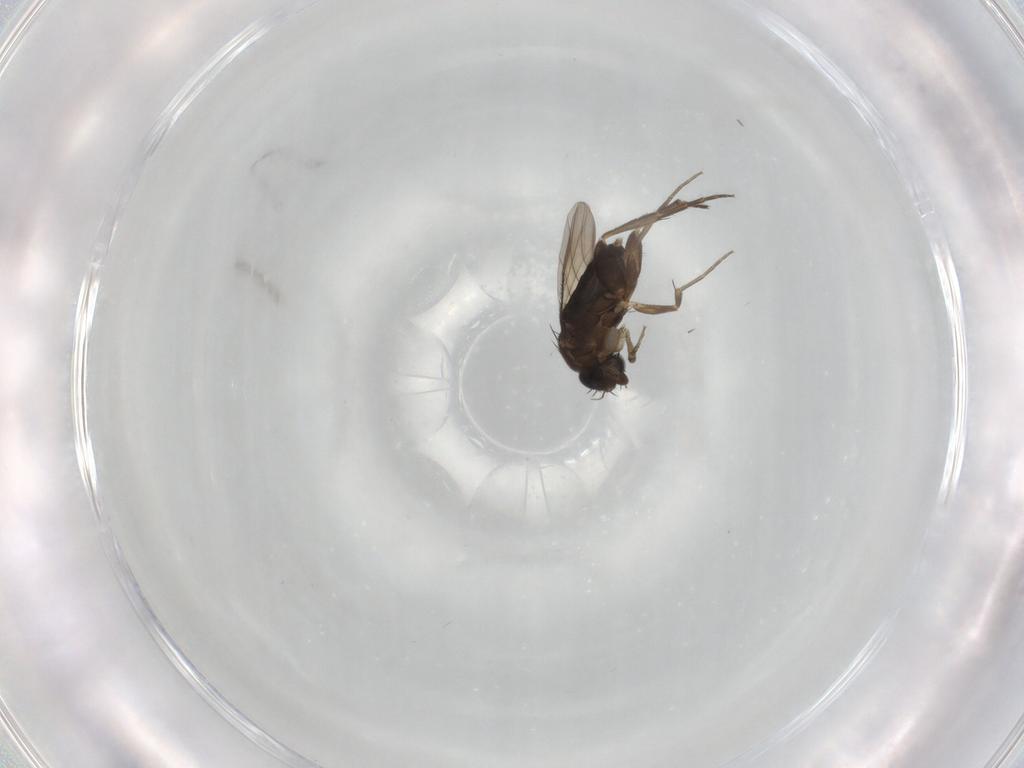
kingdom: Animalia
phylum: Arthropoda
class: Insecta
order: Diptera
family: Phoridae
